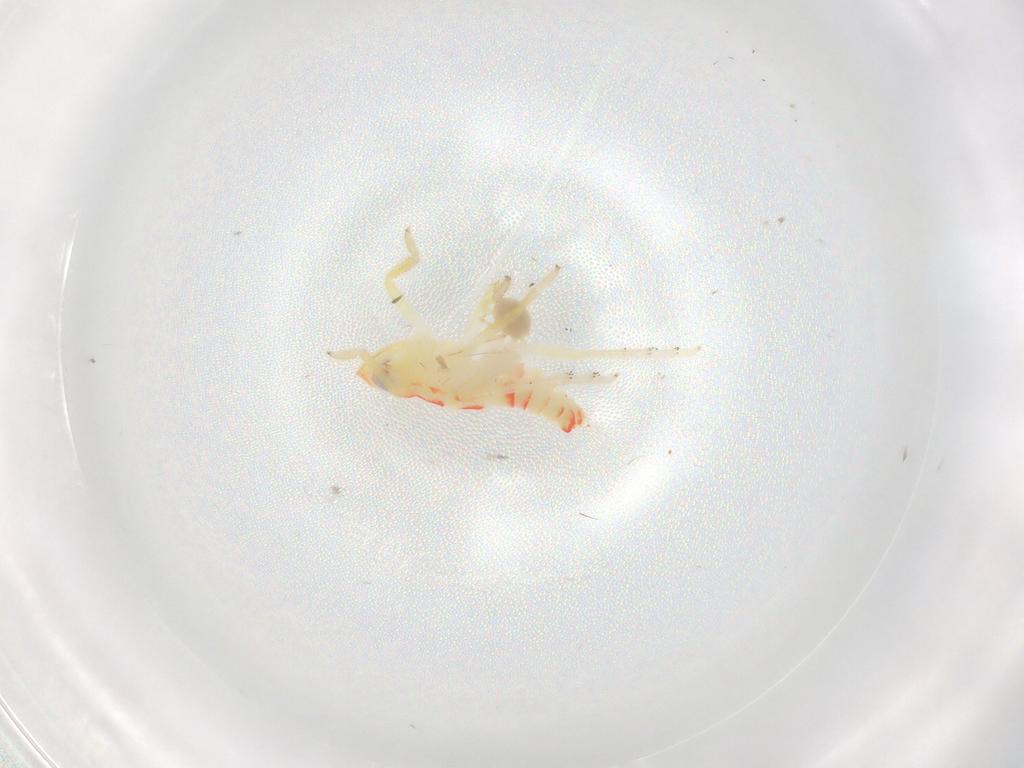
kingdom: Animalia
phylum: Arthropoda
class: Insecta
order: Hemiptera
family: Tropiduchidae
